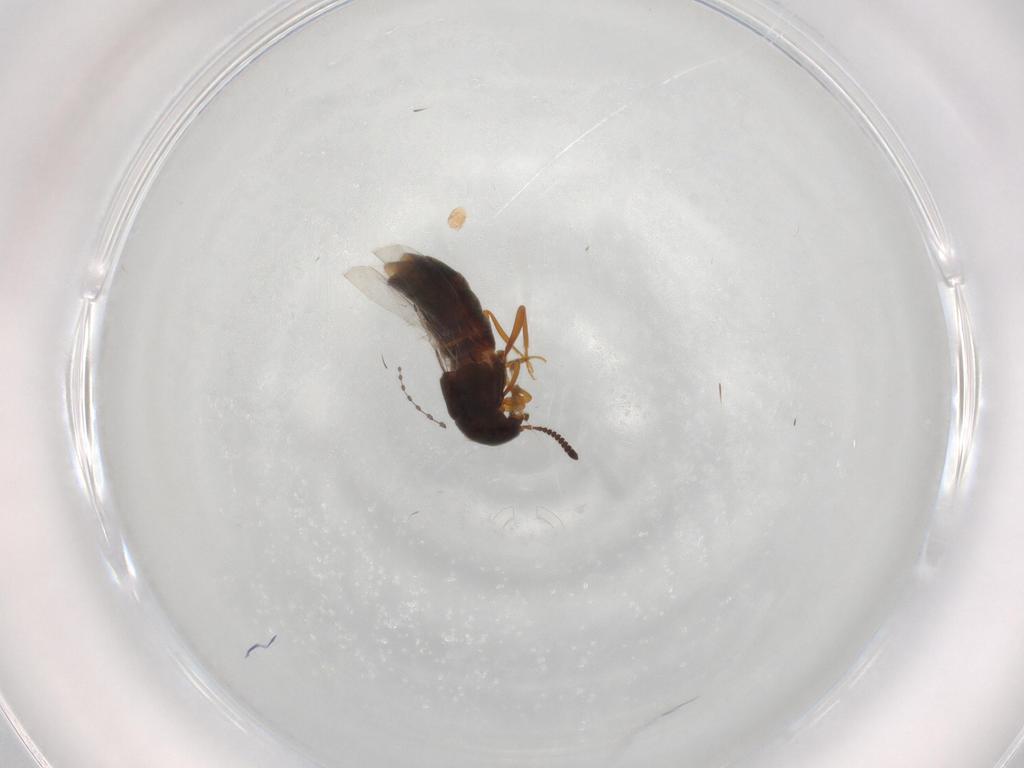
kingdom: Animalia
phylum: Arthropoda
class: Insecta
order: Coleoptera
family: Staphylinidae
